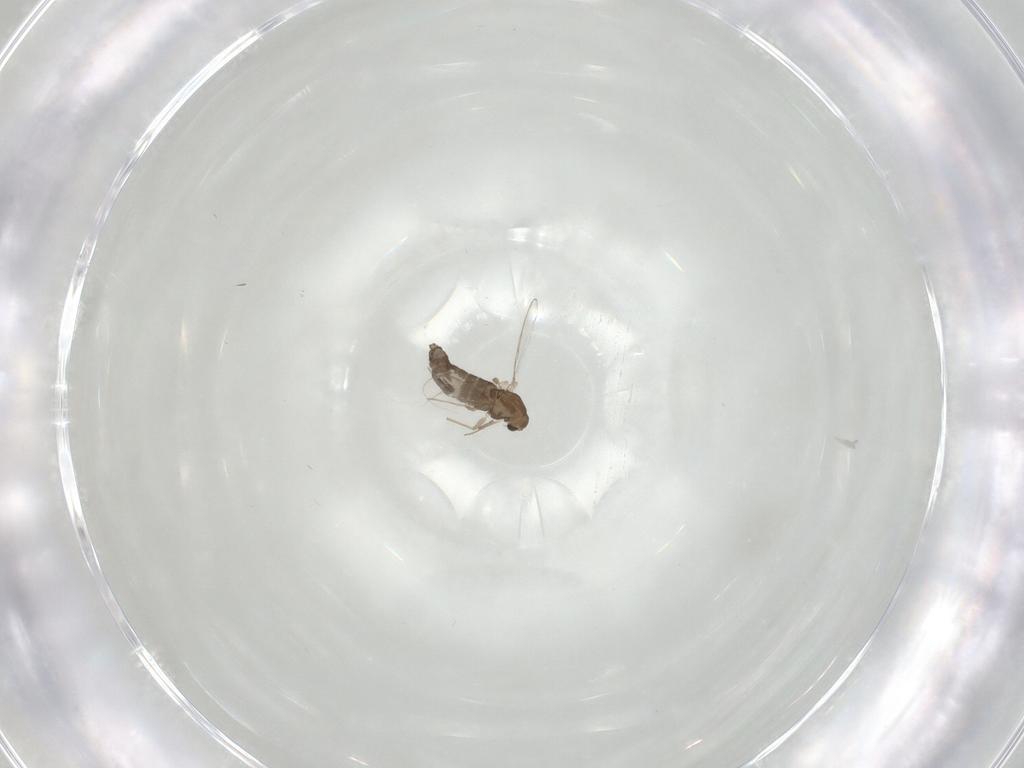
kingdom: Animalia
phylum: Arthropoda
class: Insecta
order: Diptera
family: Chironomidae
